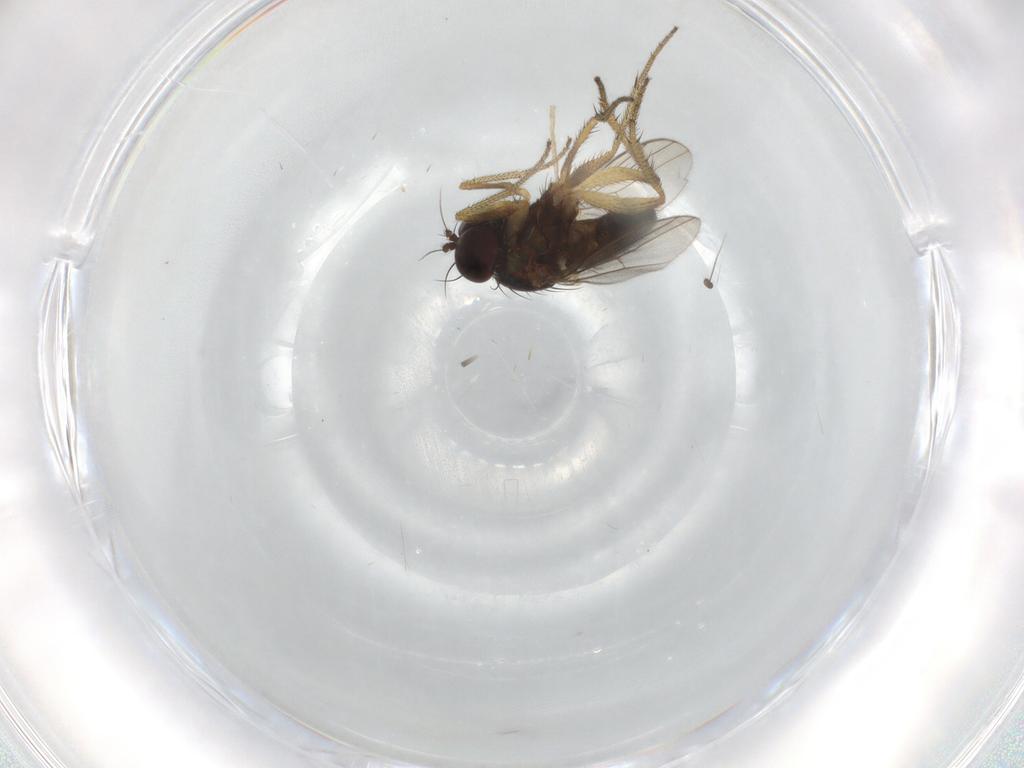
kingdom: Animalia
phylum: Arthropoda
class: Insecta
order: Diptera
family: Dolichopodidae
